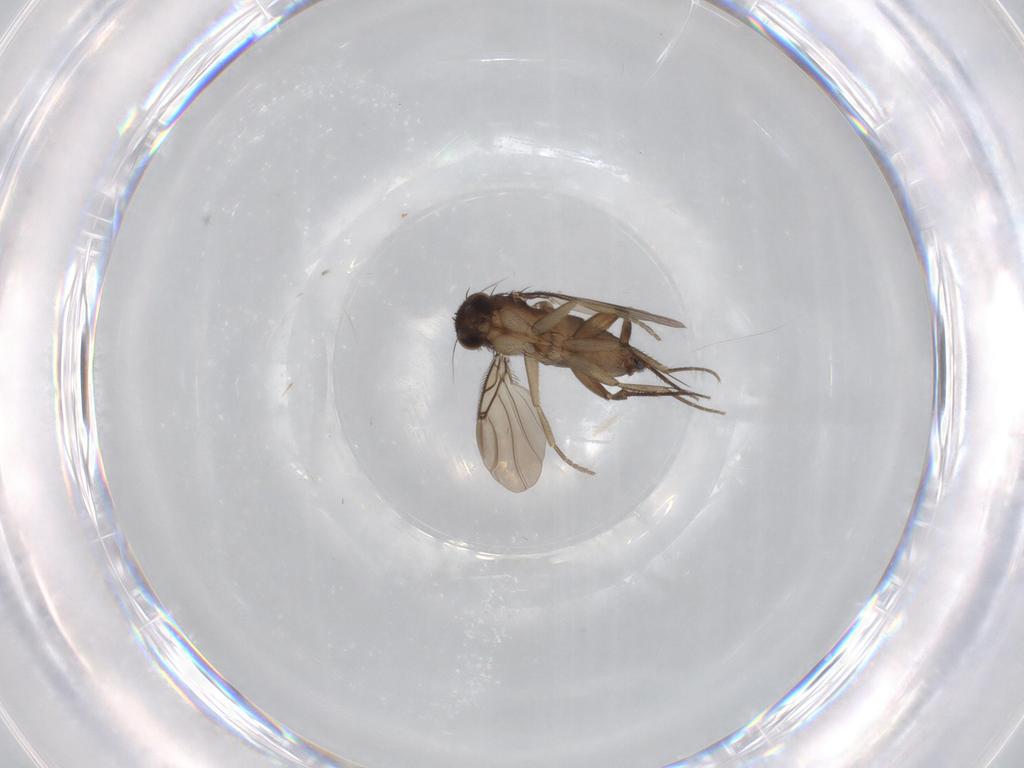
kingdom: Animalia
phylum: Arthropoda
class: Insecta
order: Diptera
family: Phoridae
